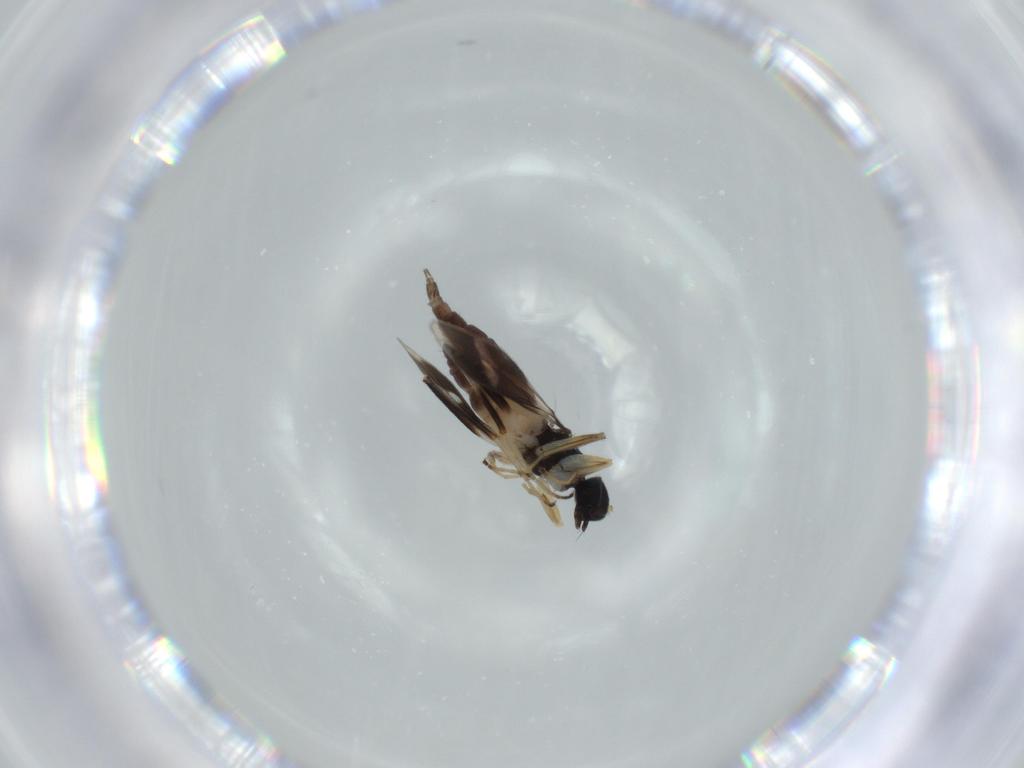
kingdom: Animalia
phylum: Arthropoda
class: Insecta
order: Diptera
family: Hybotidae
